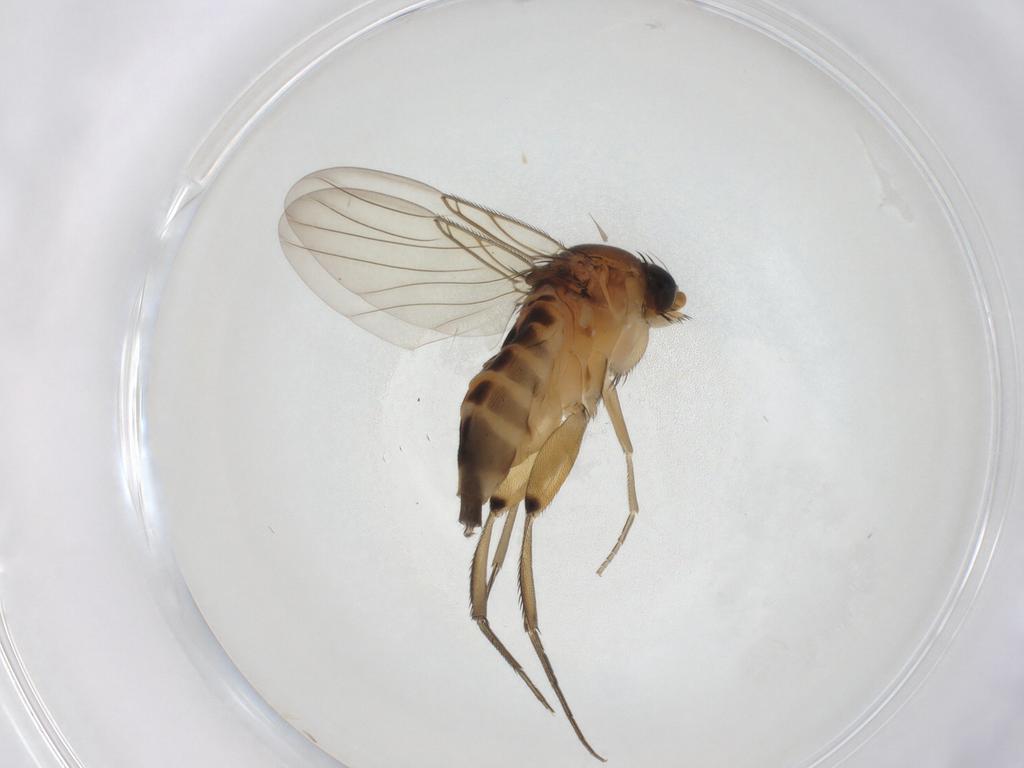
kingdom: Animalia
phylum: Arthropoda
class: Insecta
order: Diptera
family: Phoridae
